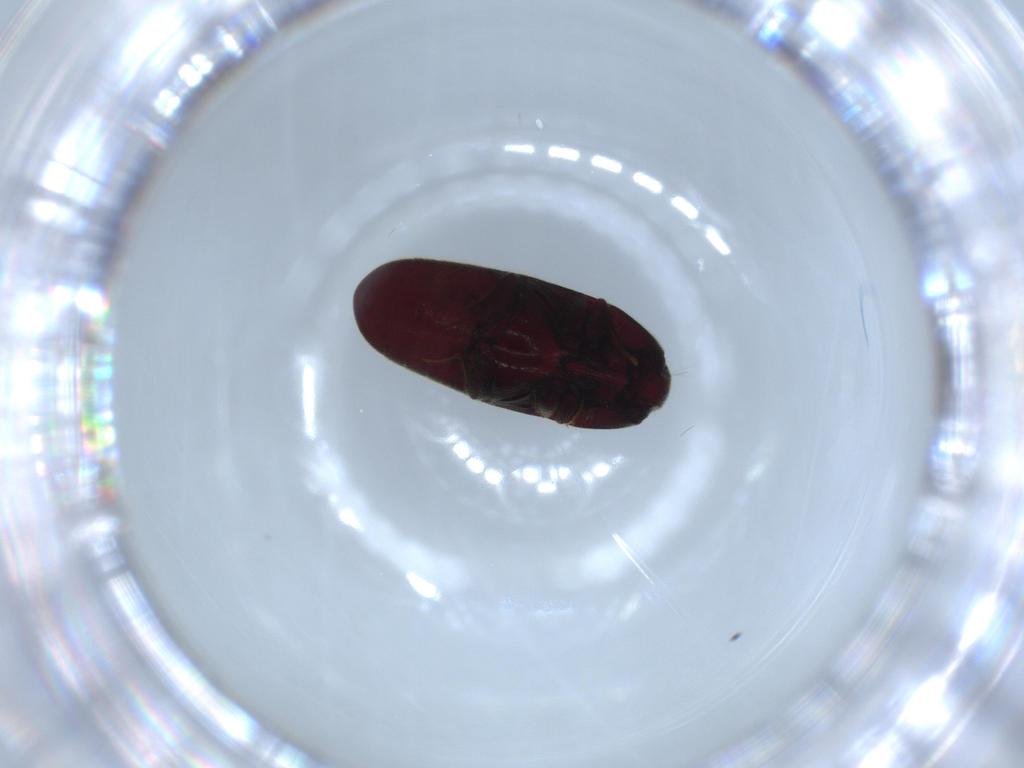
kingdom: Animalia
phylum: Arthropoda
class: Insecta
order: Coleoptera
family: Throscidae
